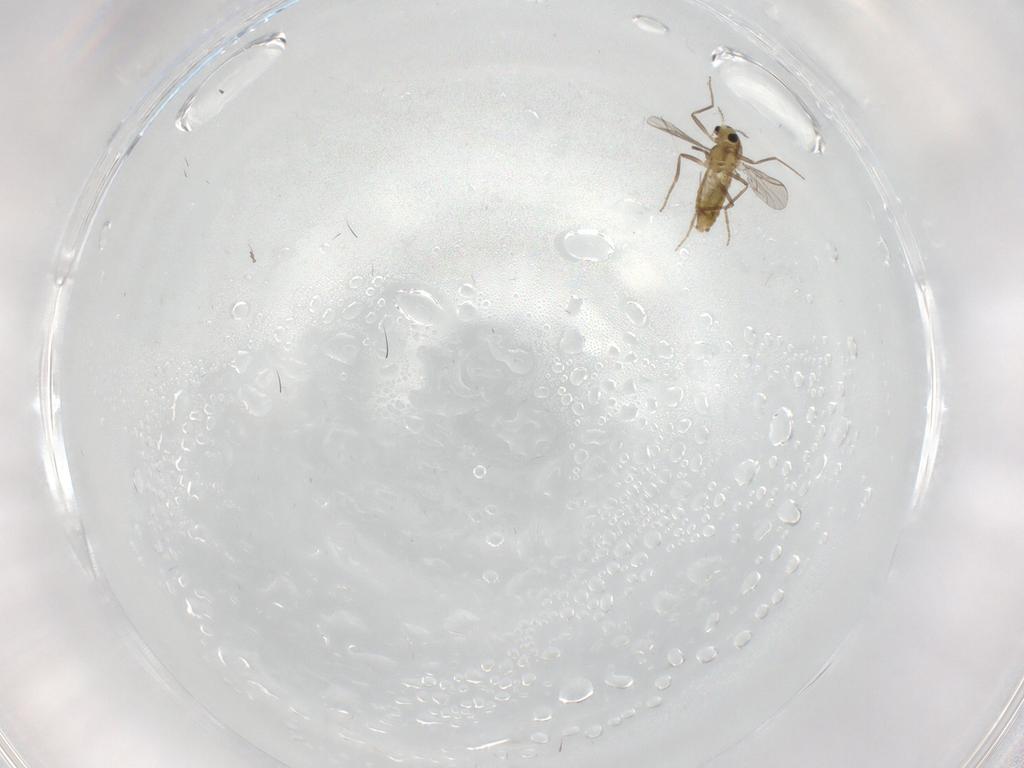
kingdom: Animalia
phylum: Arthropoda
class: Insecta
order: Diptera
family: Chironomidae
